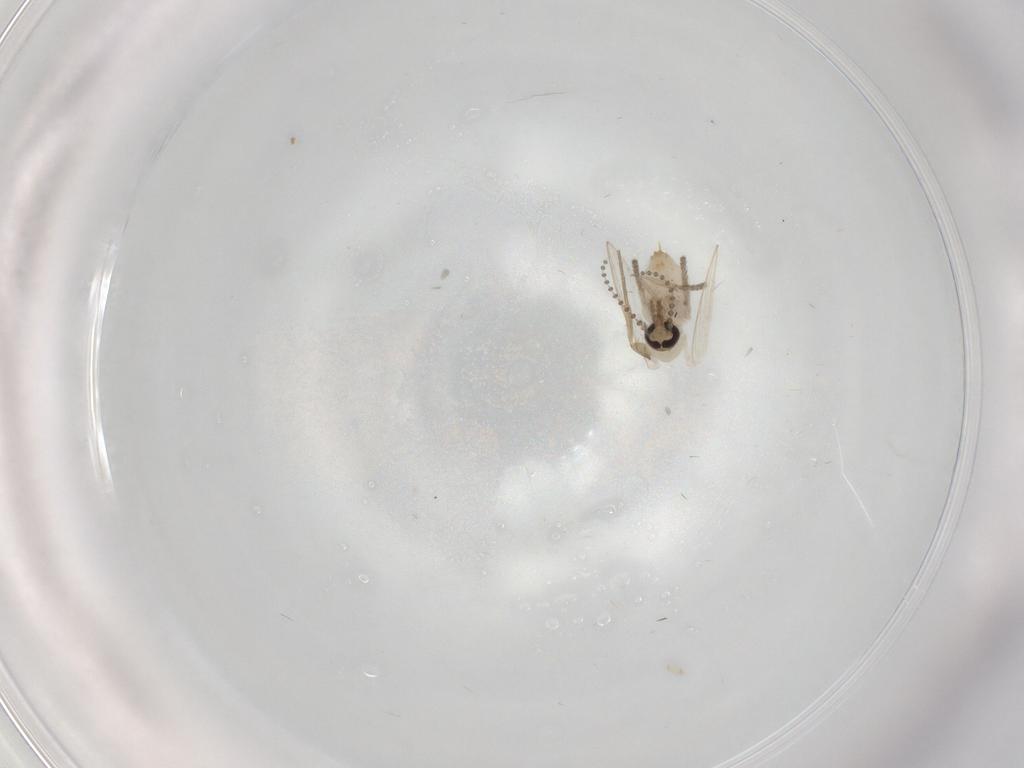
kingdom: Animalia
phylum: Arthropoda
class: Insecta
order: Diptera
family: Psychodidae
